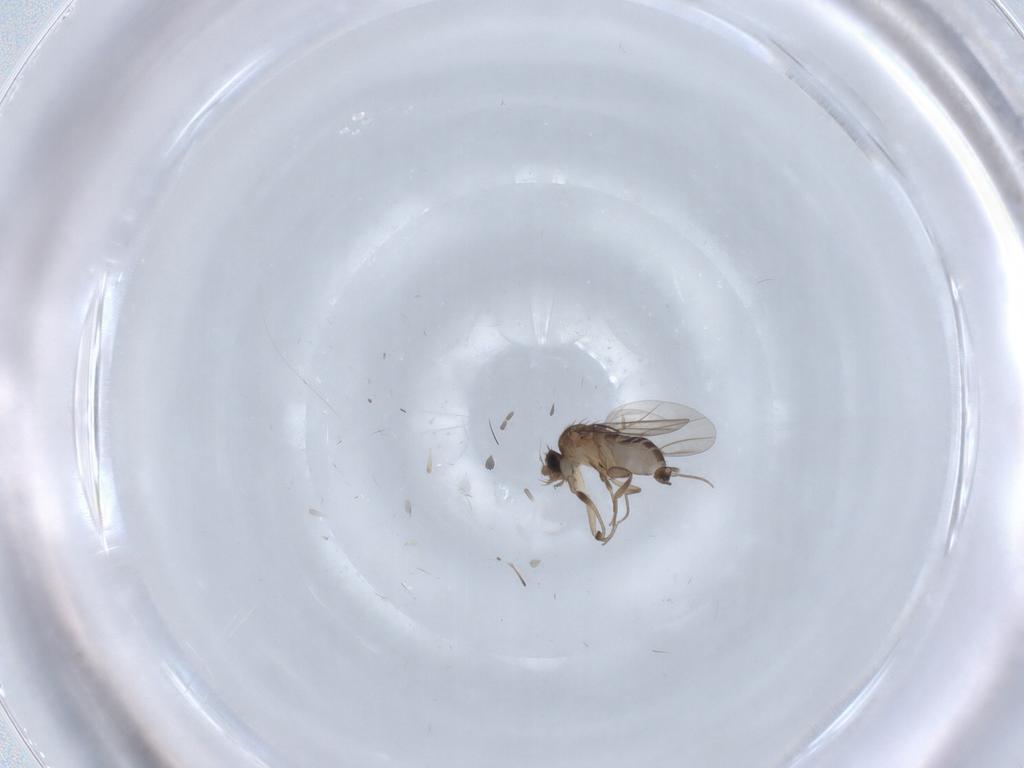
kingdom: Animalia
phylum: Arthropoda
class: Insecta
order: Diptera
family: Phoridae
